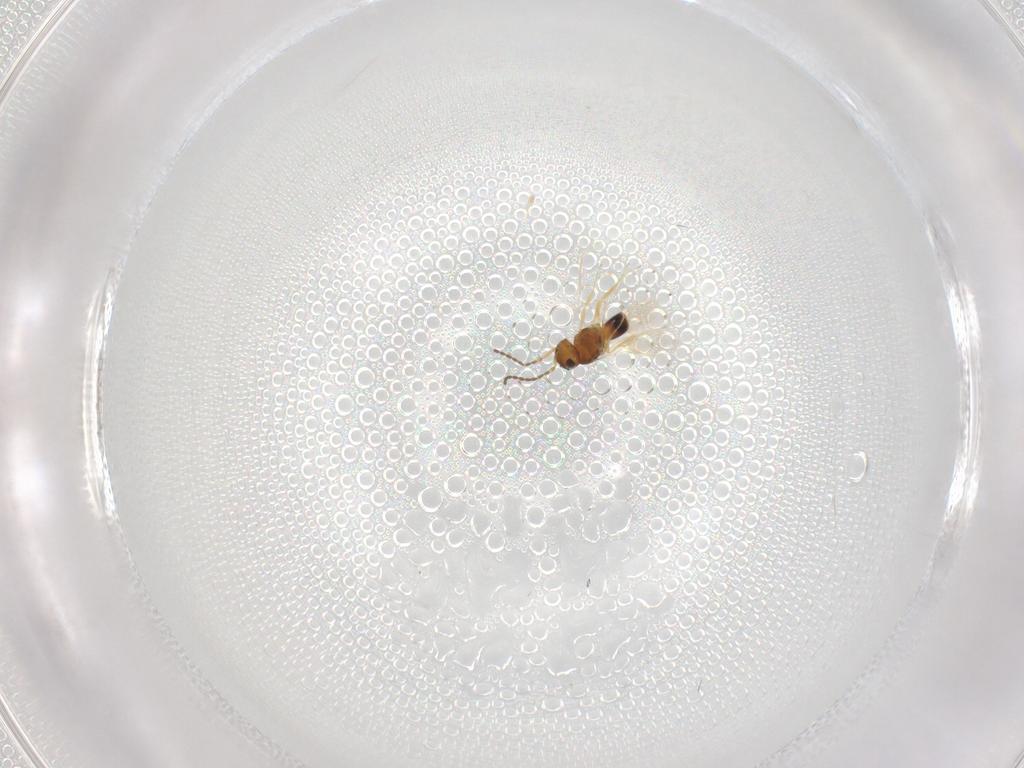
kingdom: Animalia
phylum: Arthropoda
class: Insecta
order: Hymenoptera
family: Scelionidae
